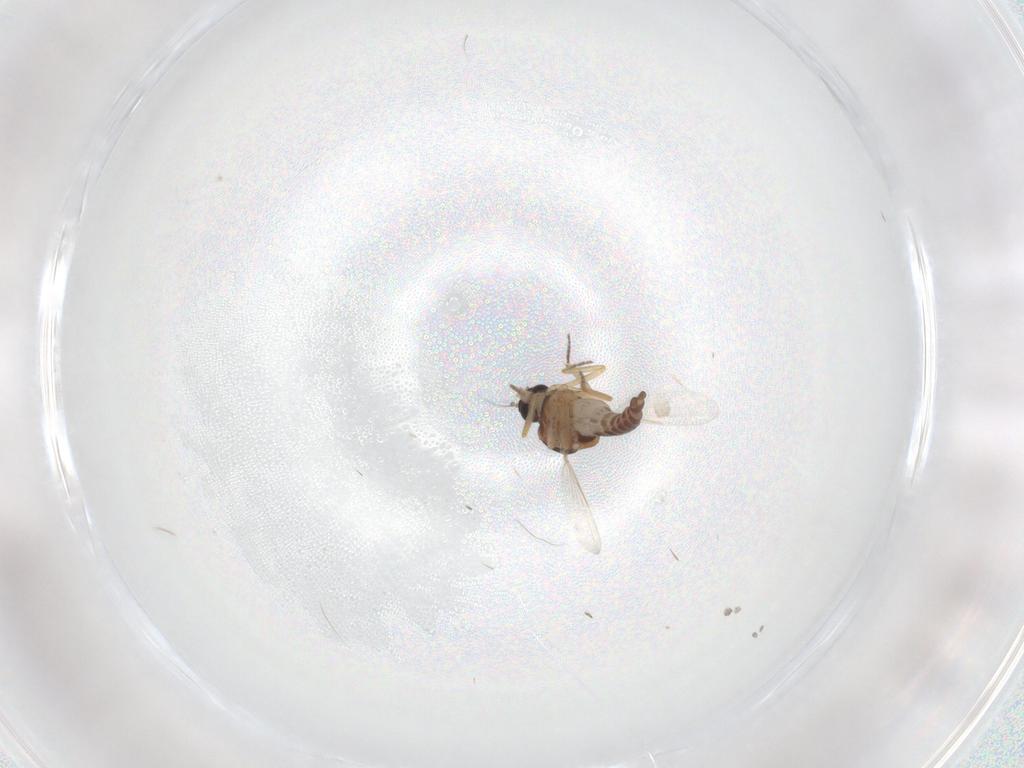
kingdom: Animalia
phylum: Arthropoda
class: Insecta
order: Diptera
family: Ceratopogonidae
